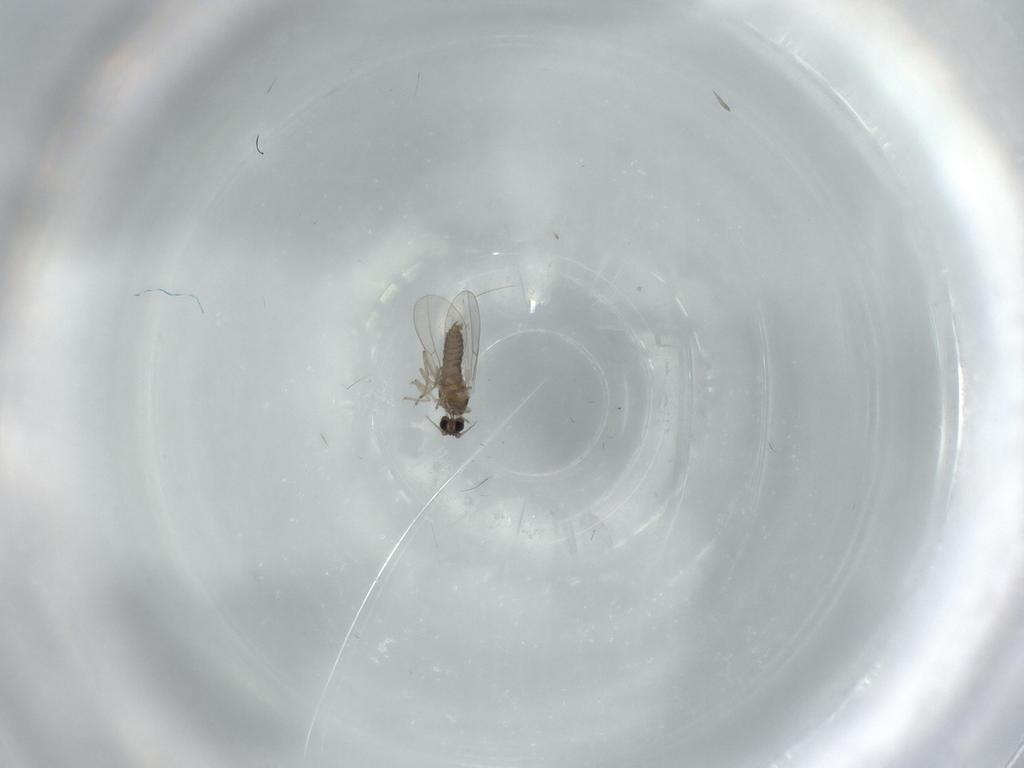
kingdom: Animalia
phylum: Arthropoda
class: Insecta
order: Diptera
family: Cecidomyiidae
